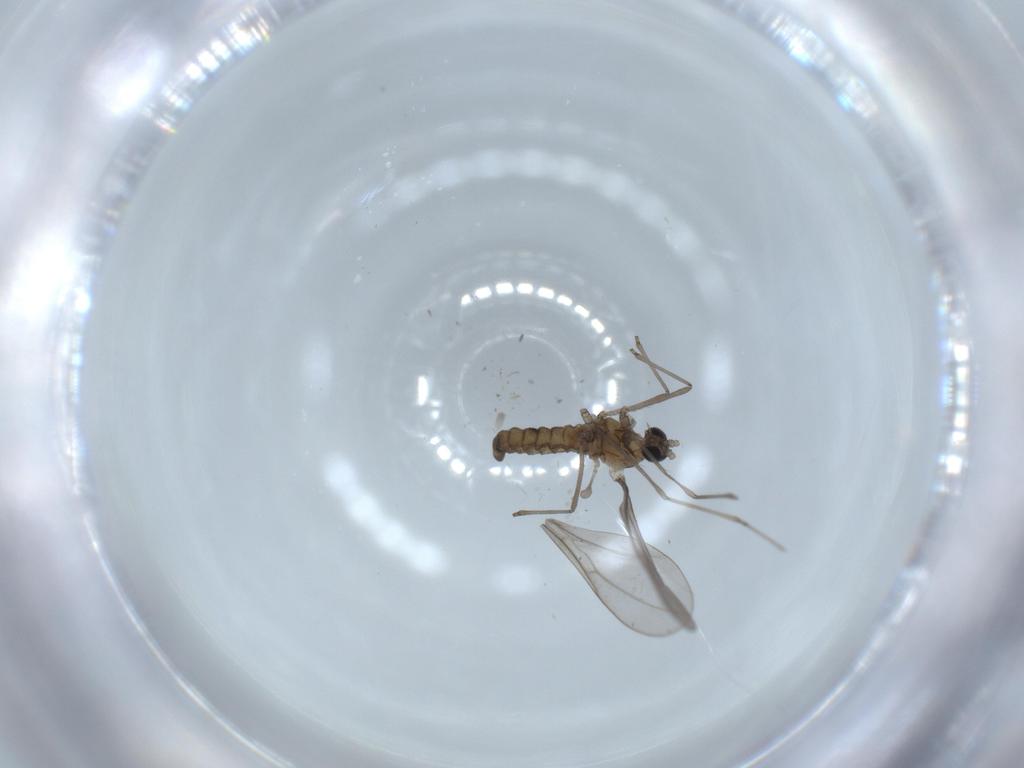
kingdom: Animalia
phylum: Arthropoda
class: Insecta
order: Diptera
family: Cecidomyiidae
